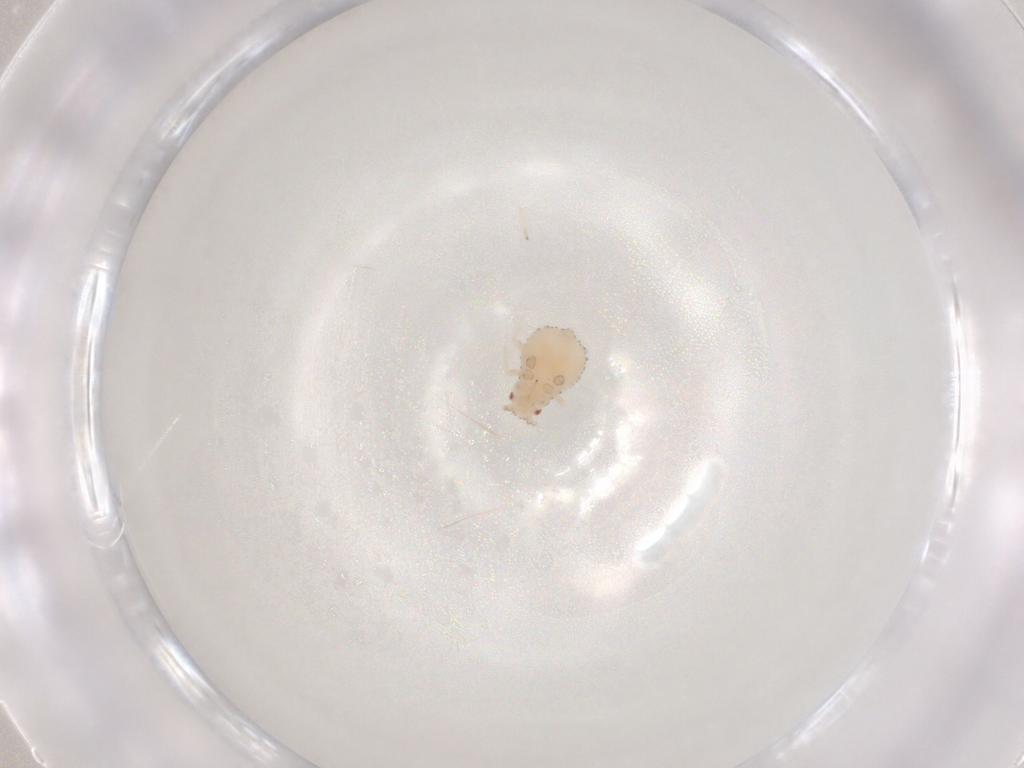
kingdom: Animalia
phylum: Arthropoda
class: Insecta
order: Hemiptera
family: Aphididae
